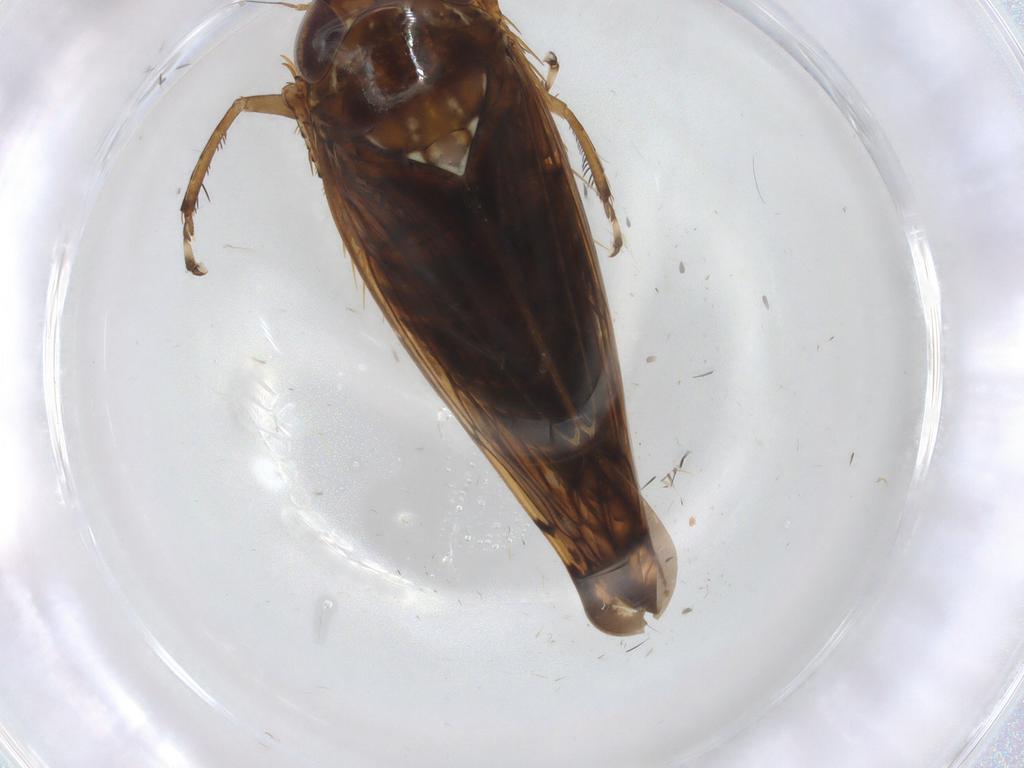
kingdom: Animalia
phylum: Arthropoda
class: Insecta
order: Hemiptera
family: Cicadellidae
